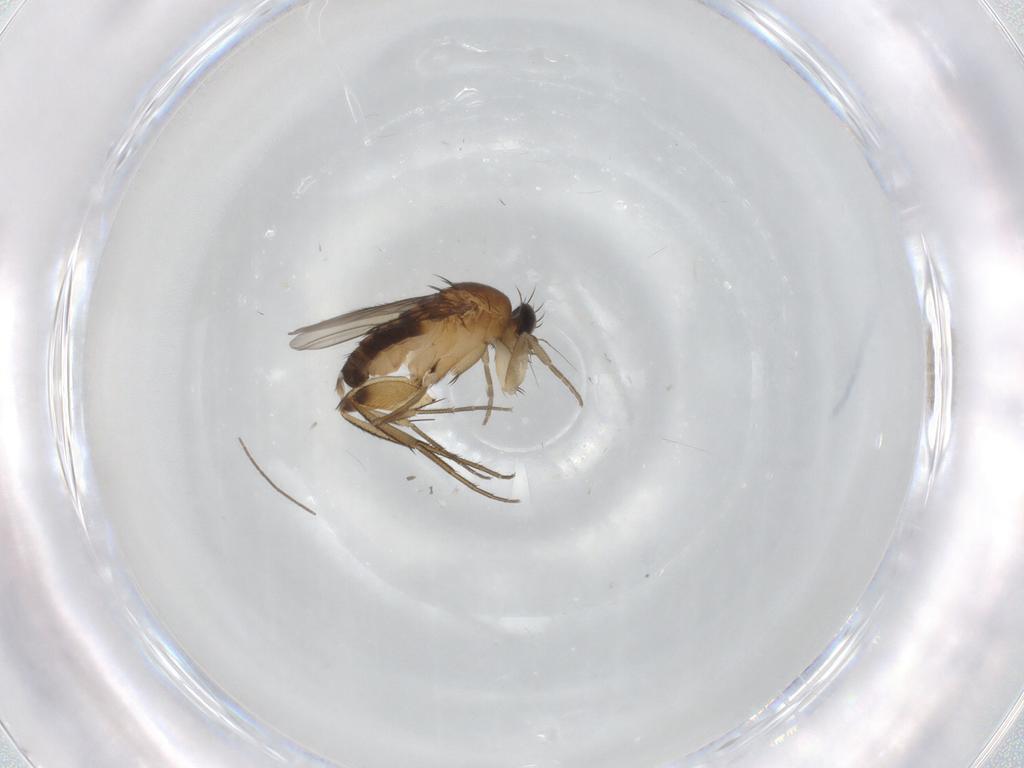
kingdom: Animalia
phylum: Arthropoda
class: Insecta
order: Diptera
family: Phoridae
